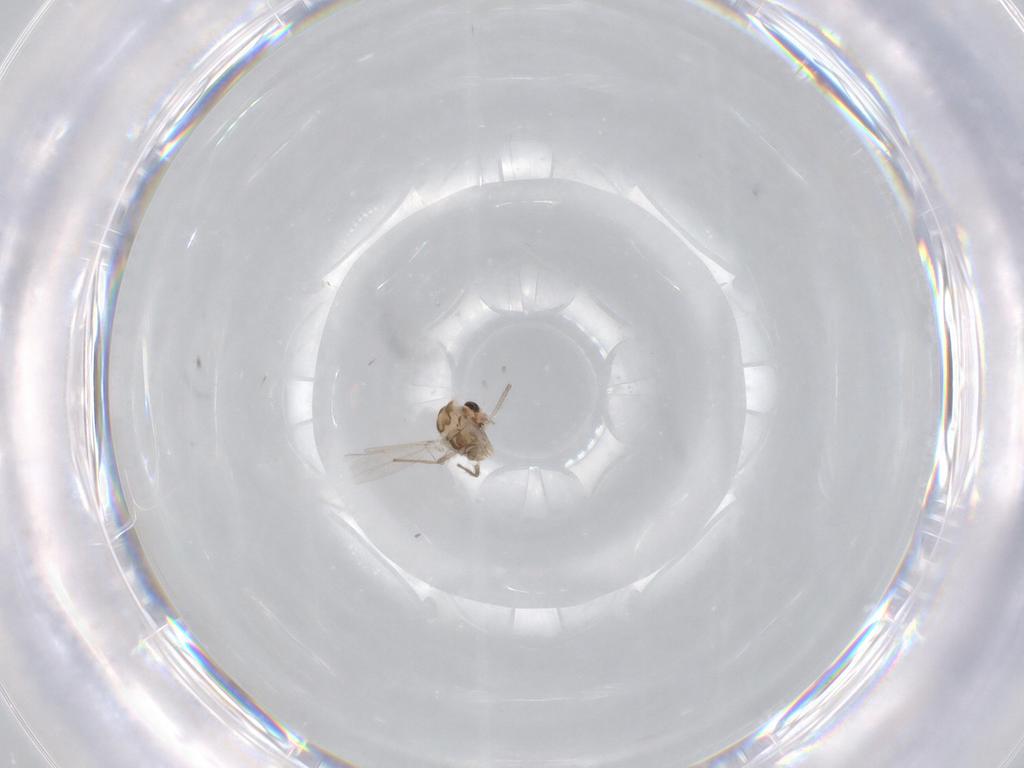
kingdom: Animalia
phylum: Arthropoda
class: Insecta
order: Diptera
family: Chironomidae
